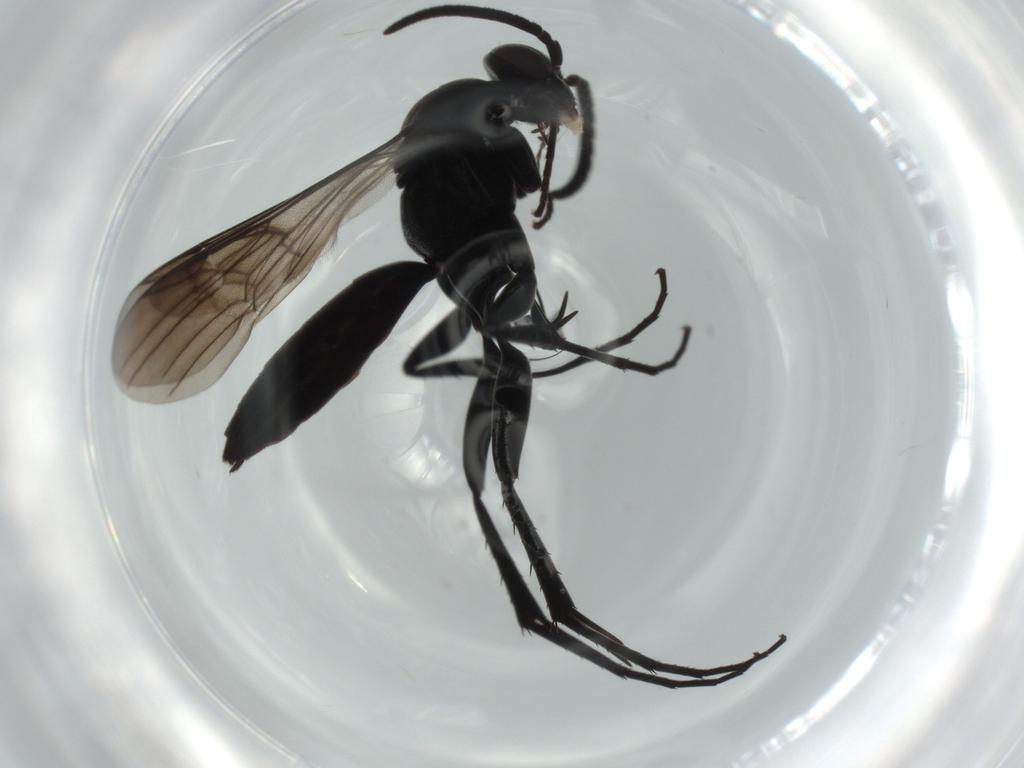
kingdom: Animalia
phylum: Arthropoda
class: Insecta
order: Hymenoptera
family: Pompilidae
